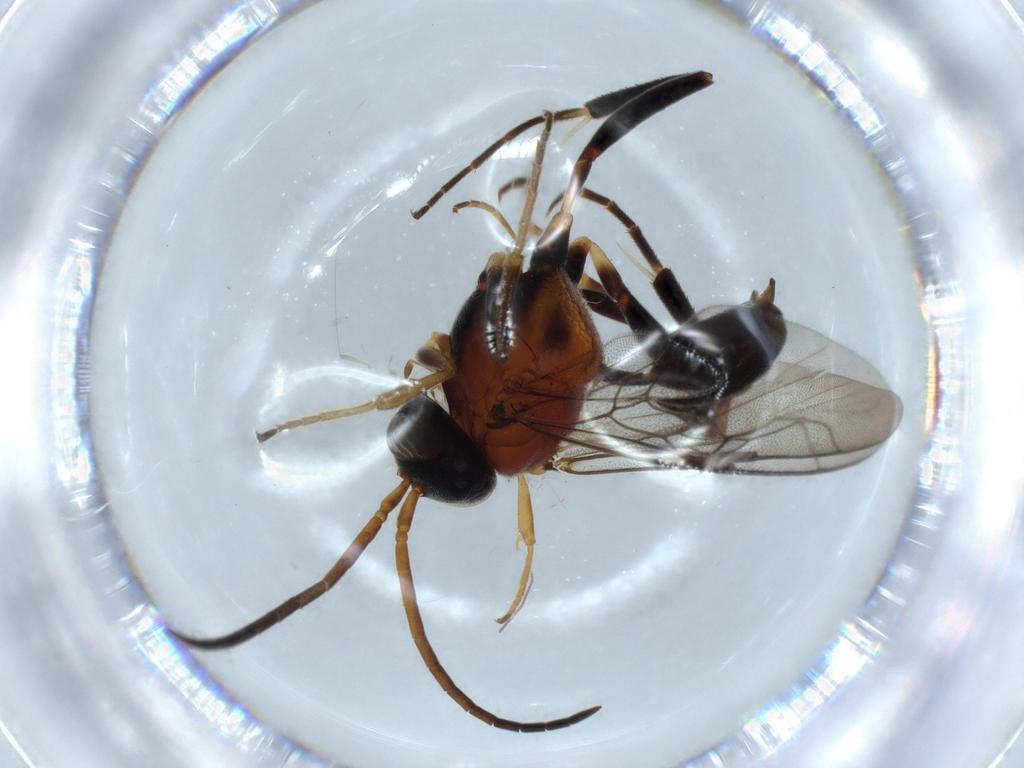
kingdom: Animalia
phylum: Arthropoda
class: Insecta
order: Hymenoptera
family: Evaniidae
